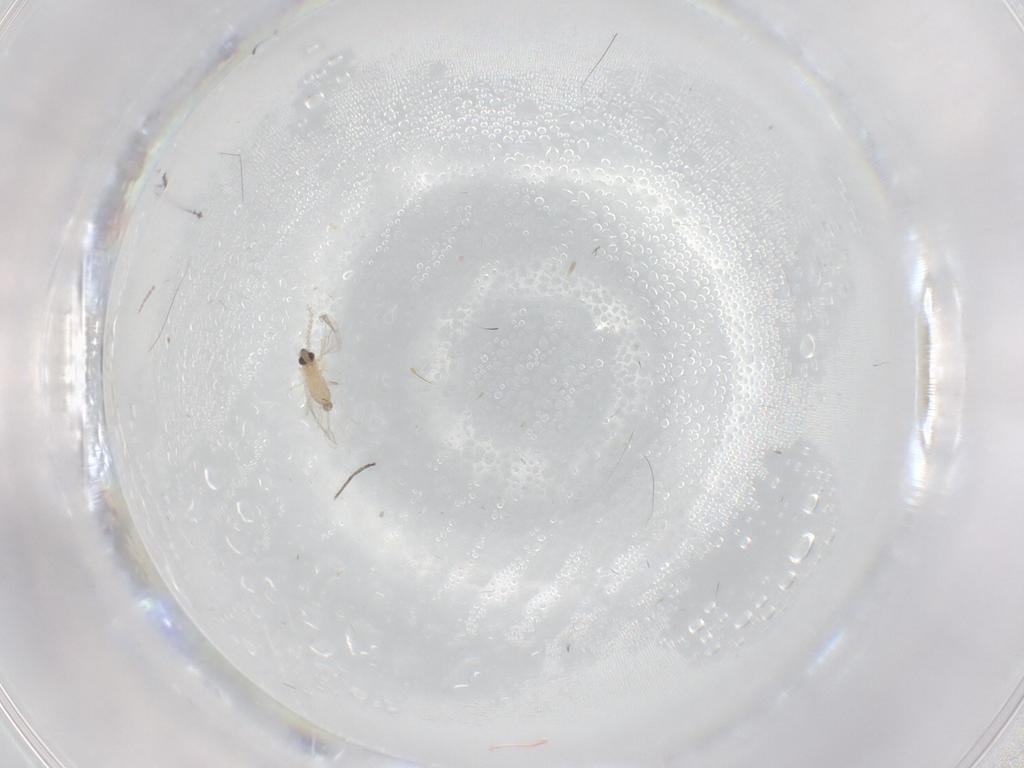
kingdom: Animalia
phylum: Arthropoda
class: Insecta
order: Diptera
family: Cecidomyiidae
